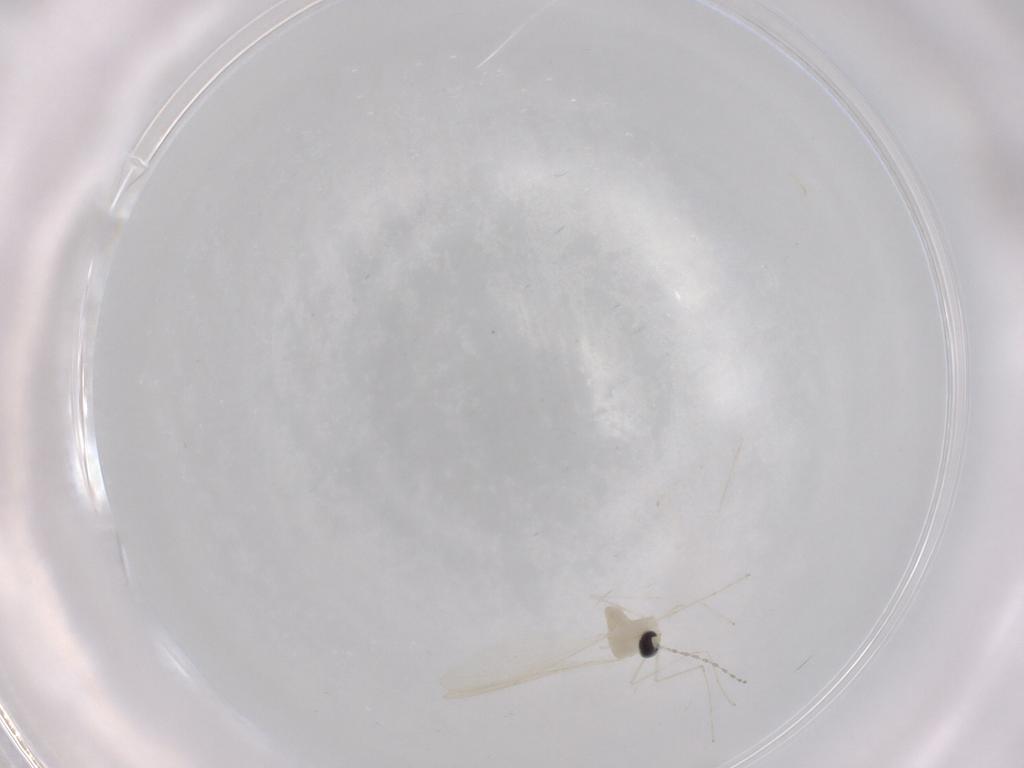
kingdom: Animalia
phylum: Arthropoda
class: Insecta
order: Diptera
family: Cecidomyiidae
